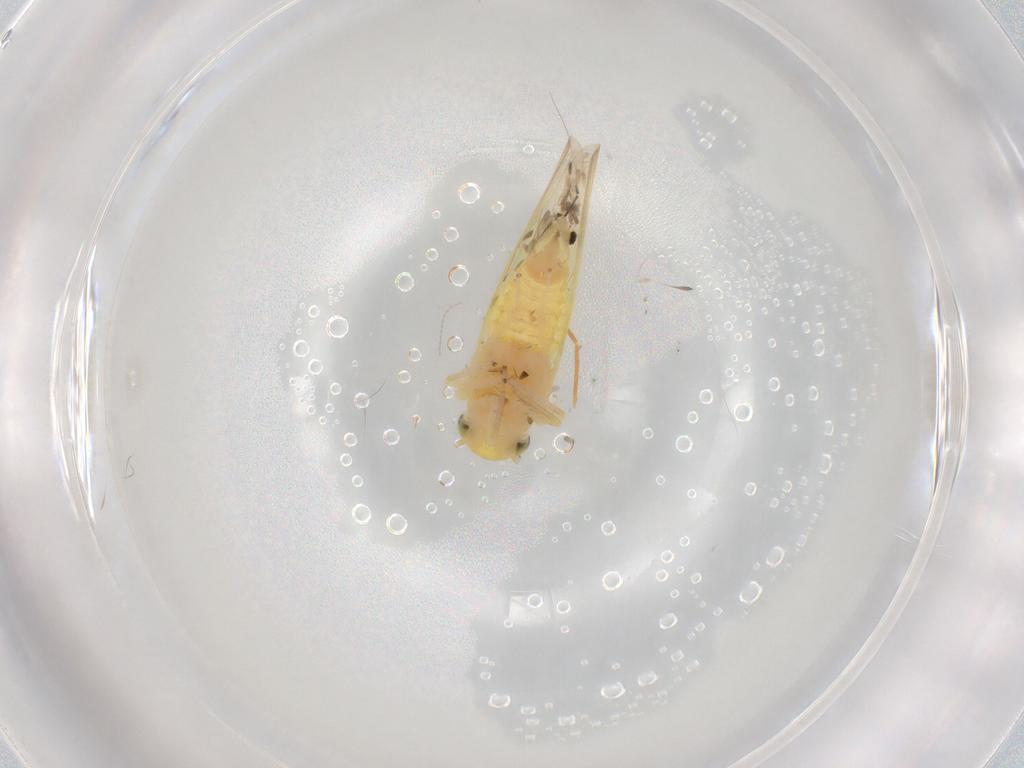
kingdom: Animalia
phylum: Arthropoda
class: Insecta
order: Hemiptera
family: Cicadellidae
